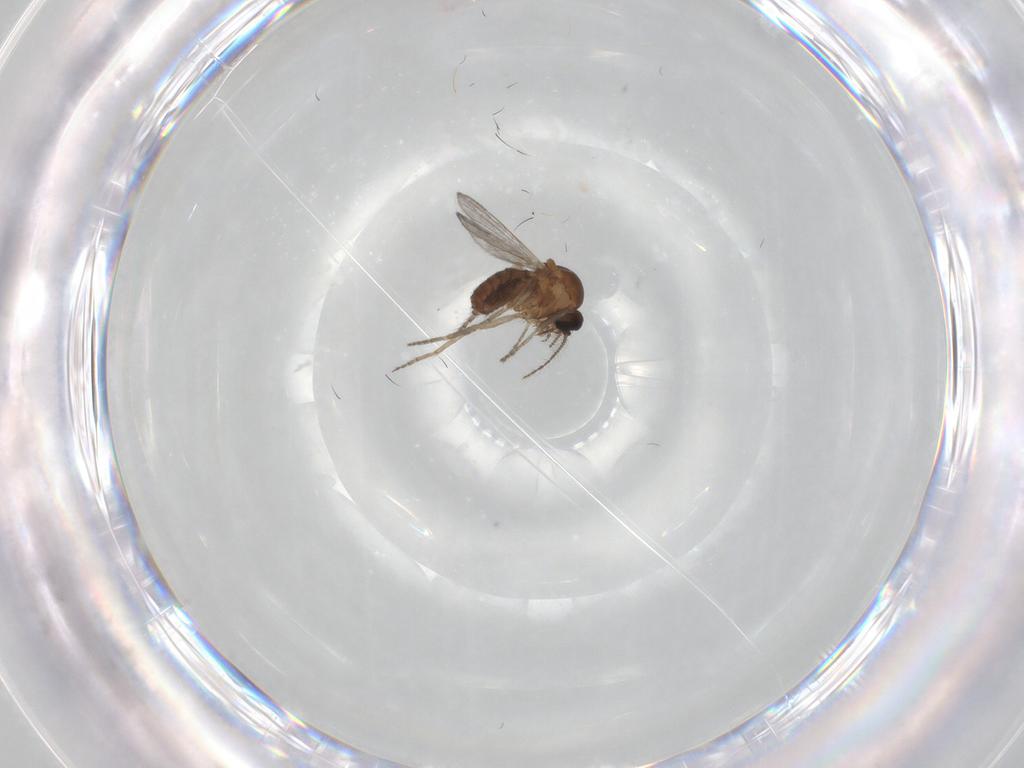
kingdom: Animalia
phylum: Arthropoda
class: Insecta
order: Diptera
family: Ceratopogonidae
